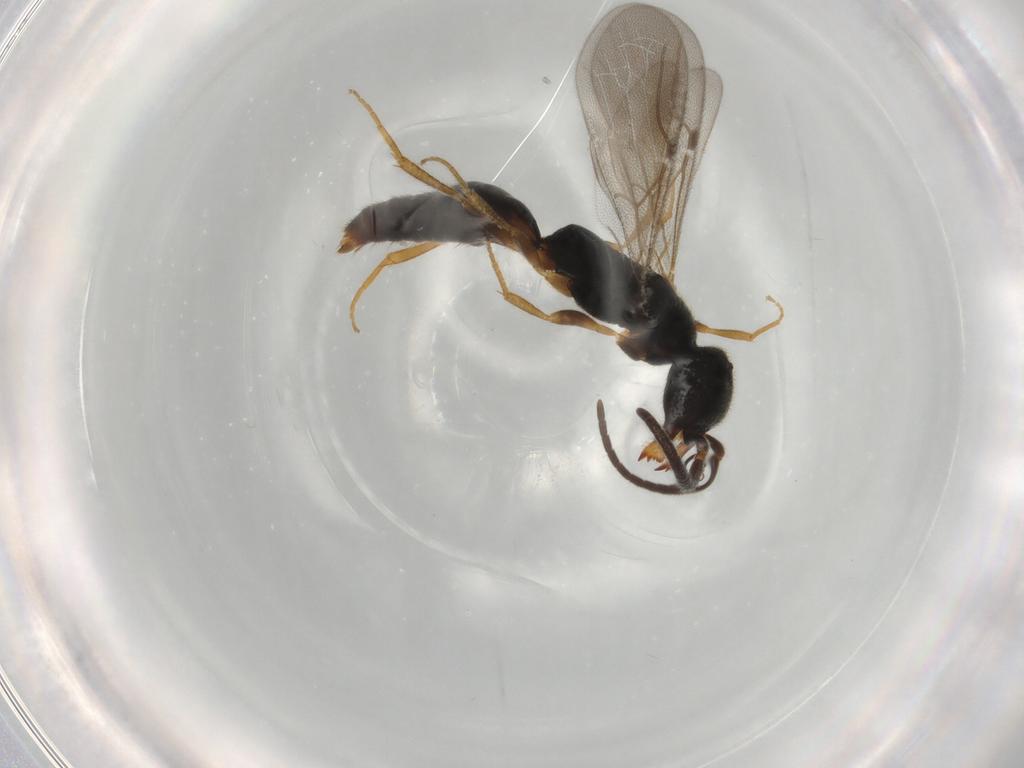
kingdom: Animalia
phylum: Arthropoda
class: Insecta
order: Hymenoptera
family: Bethylidae
